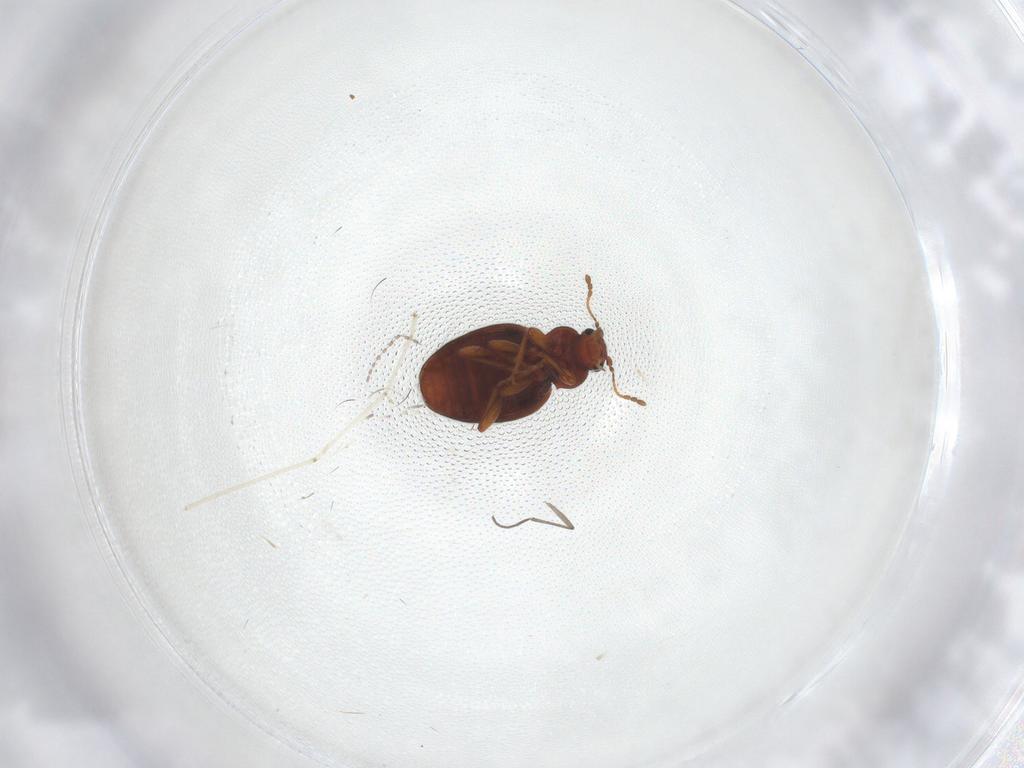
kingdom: Animalia
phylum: Arthropoda
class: Insecta
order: Coleoptera
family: Latridiidae
